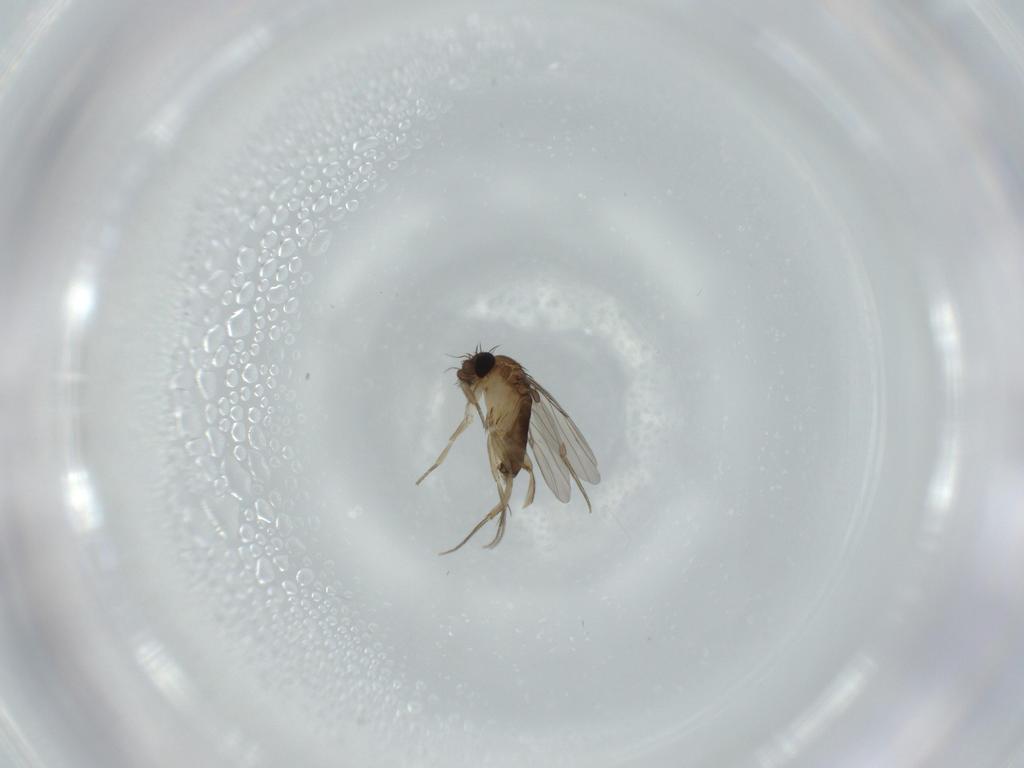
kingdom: Animalia
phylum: Arthropoda
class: Insecta
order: Diptera
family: Phoridae
